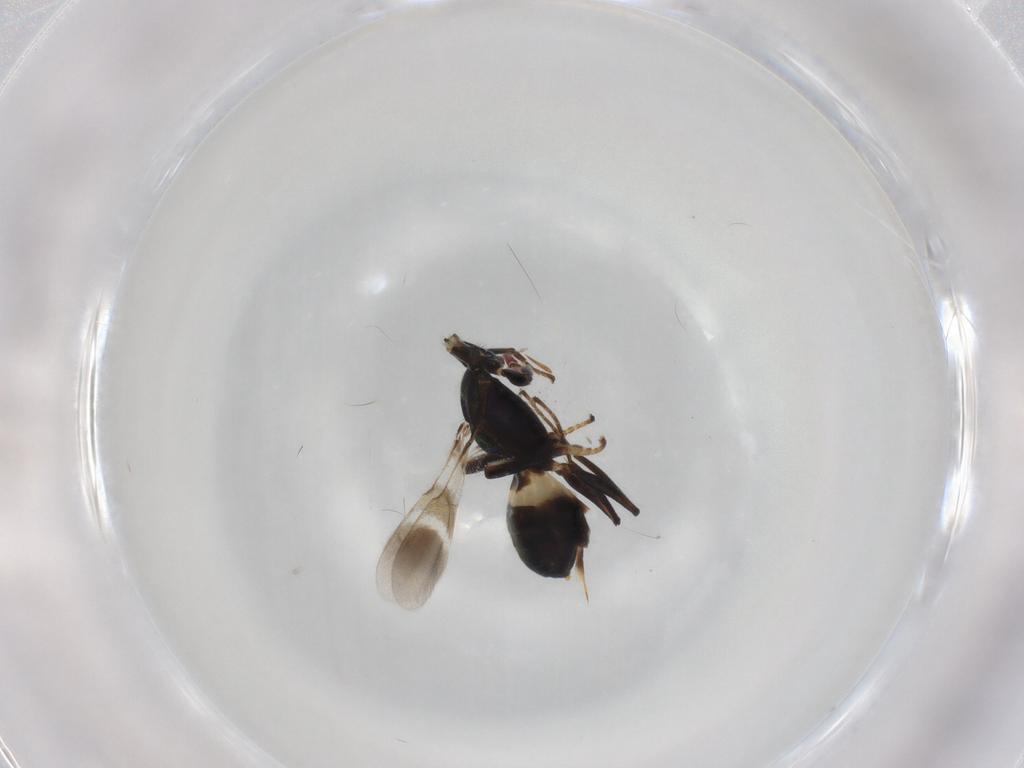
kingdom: Animalia
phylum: Arthropoda
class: Insecta
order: Hymenoptera
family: Eupelmidae
